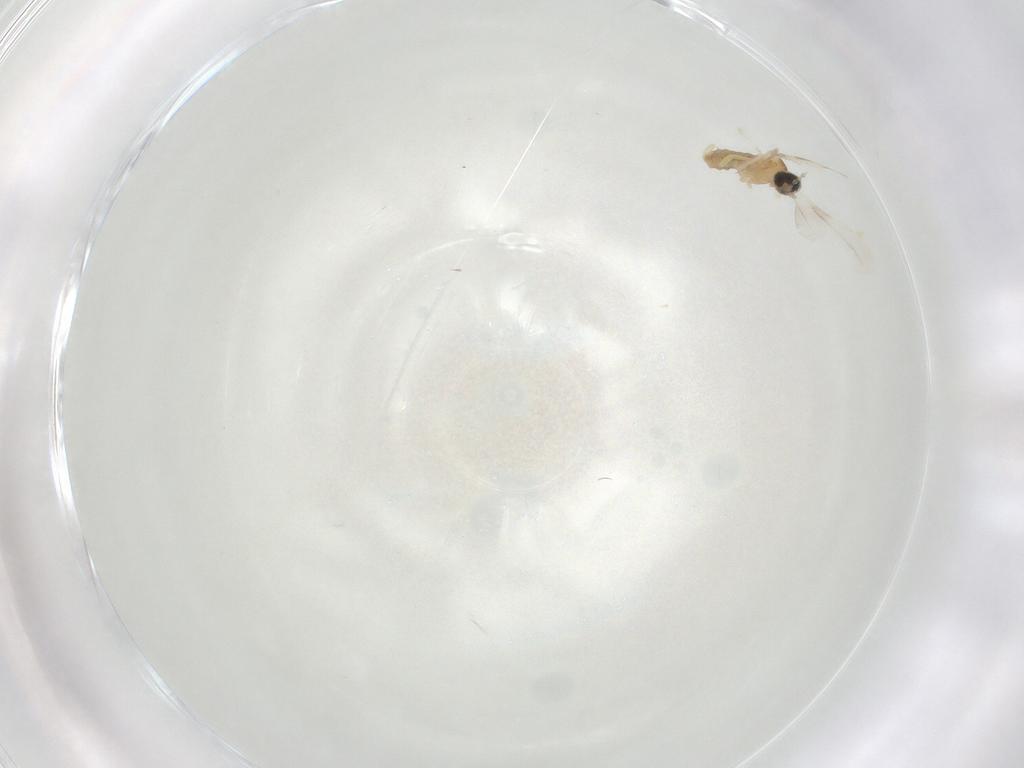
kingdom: Animalia
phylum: Arthropoda
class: Insecta
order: Diptera
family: Cecidomyiidae
